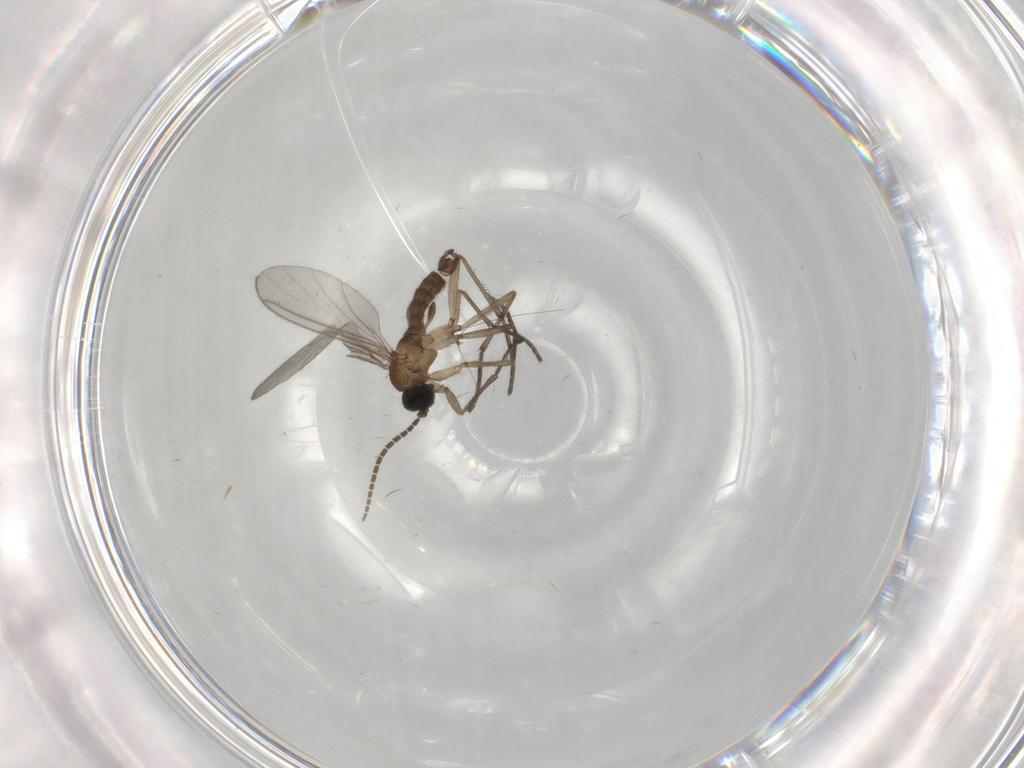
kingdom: Animalia
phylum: Arthropoda
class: Insecta
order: Diptera
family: Sciaridae
